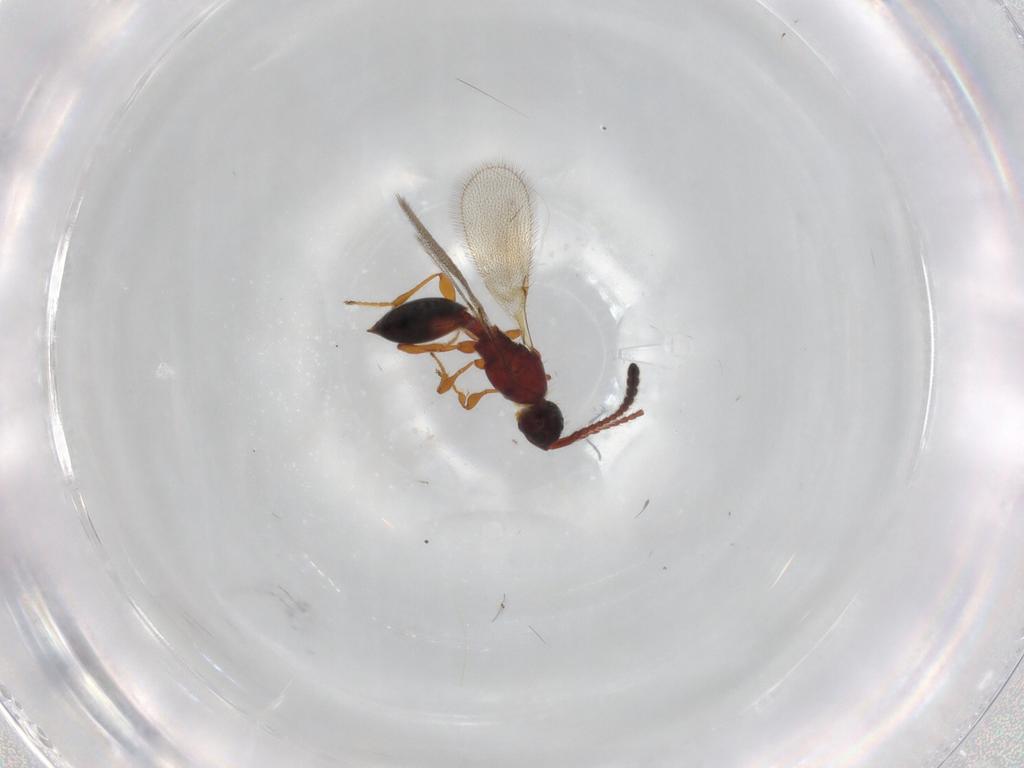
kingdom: Animalia
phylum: Arthropoda
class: Insecta
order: Hymenoptera
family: Diapriidae
